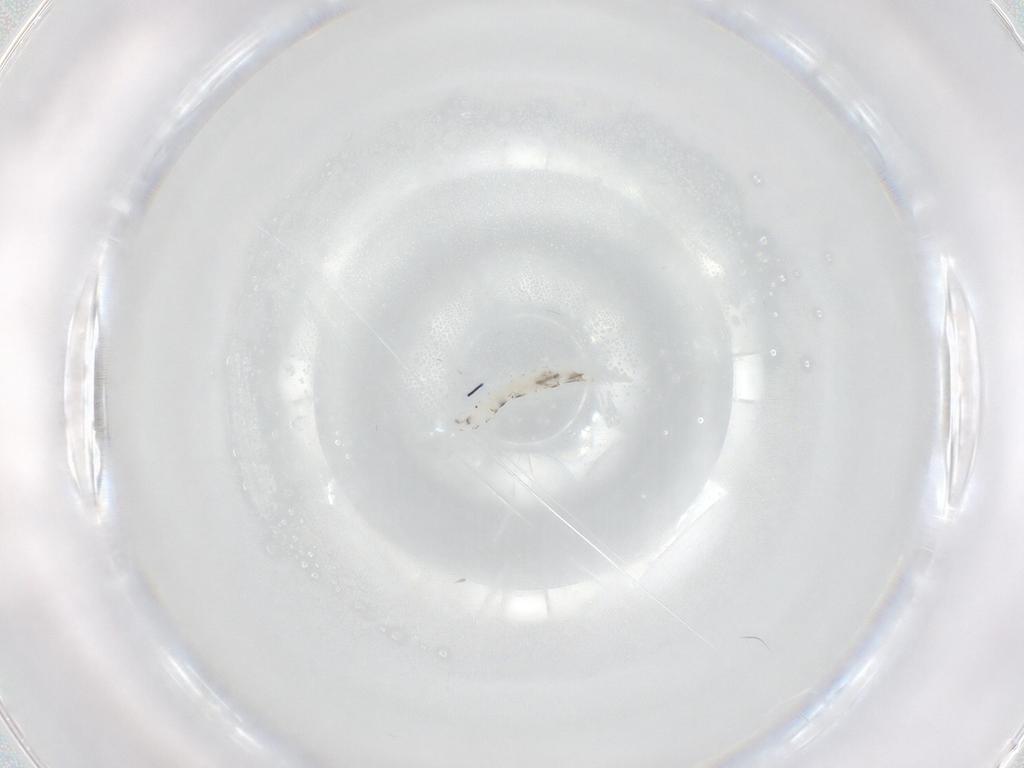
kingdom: Animalia
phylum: Arthropoda
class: Insecta
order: Diptera
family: Drosophilidae
